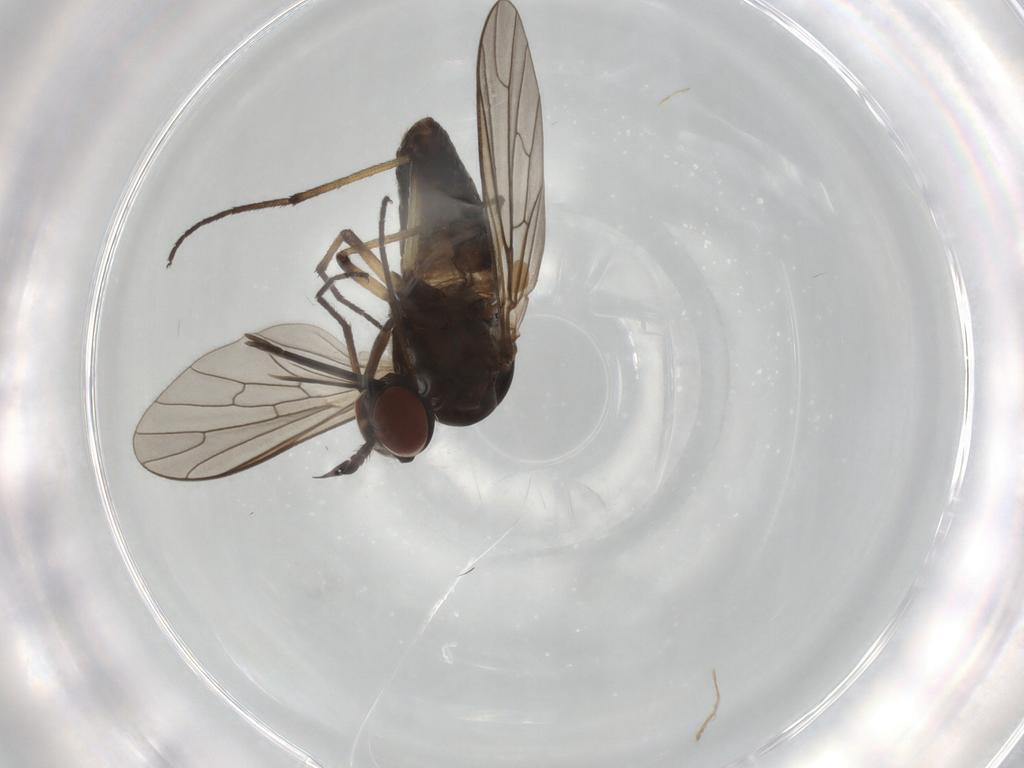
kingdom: Animalia
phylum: Arthropoda
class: Insecta
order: Diptera
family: Bombyliidae
